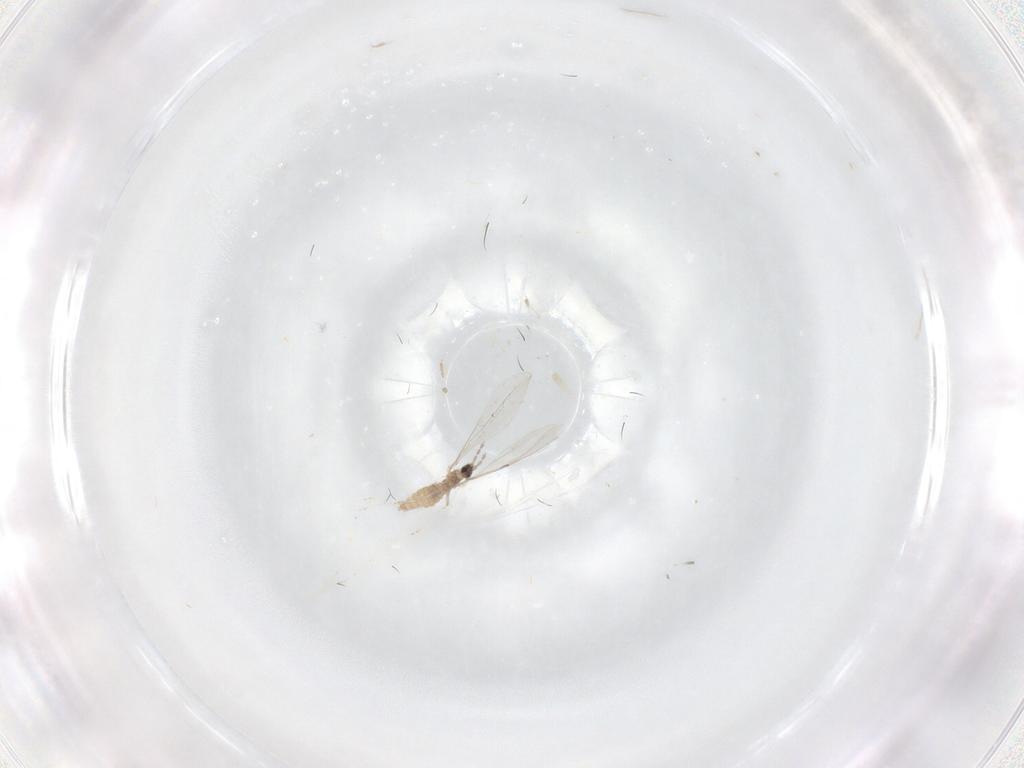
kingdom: Animalia
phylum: Arthropoda
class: Insecta
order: Diptera
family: Cecidomyiidae
